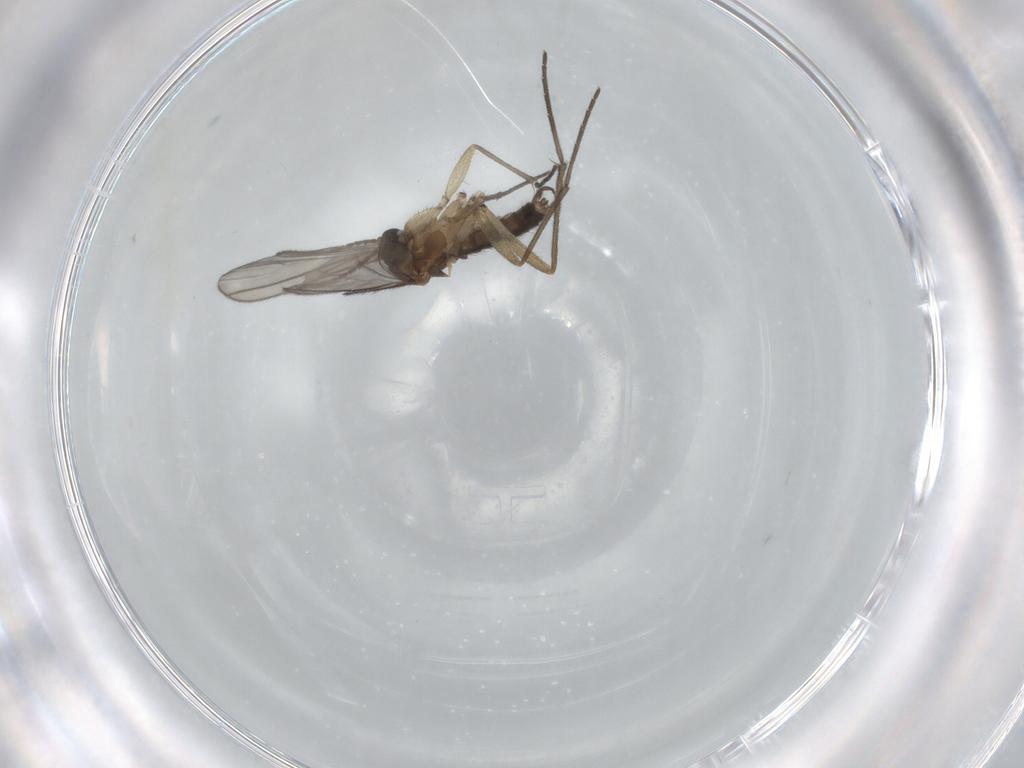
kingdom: Animalia
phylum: Arthropoda
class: Insecta
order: Diptera
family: Sciaridae
